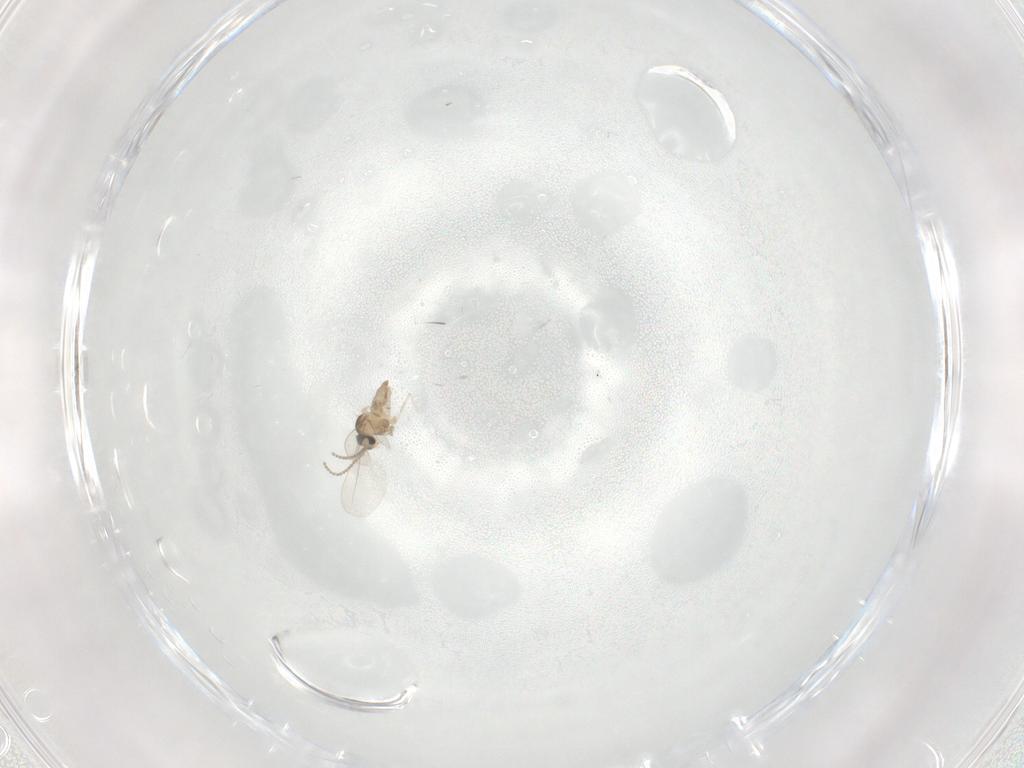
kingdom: Animalia
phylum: Arthropoda
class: Insecta
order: Diptera
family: Cecidomyiidae
